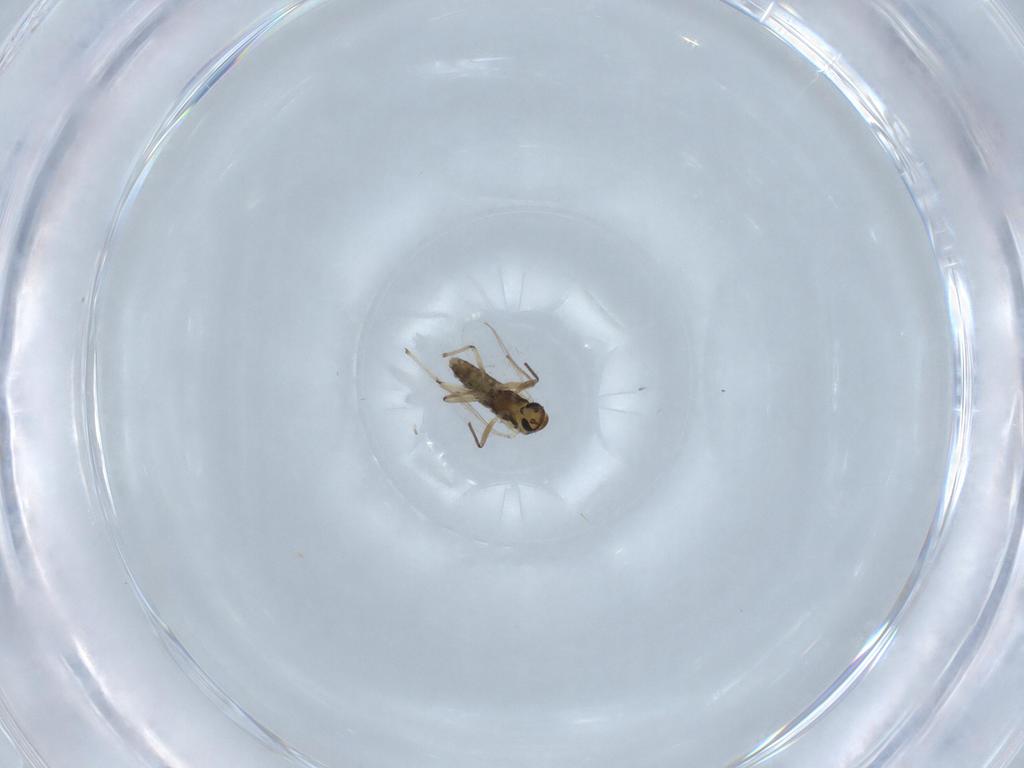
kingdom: Animalia
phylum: Arthropoda
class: Insecta
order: Diptera
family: Chironomidae
